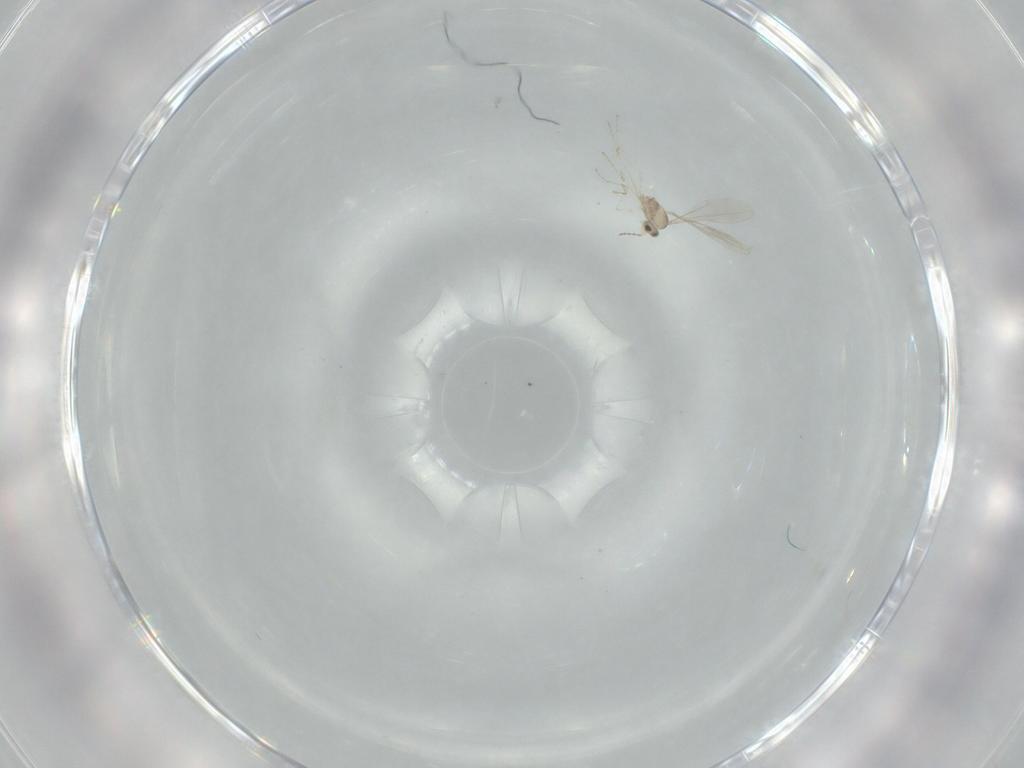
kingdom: Animalia
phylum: Arthropoda
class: Insecta
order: Diptera
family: Cecidomyiidae
